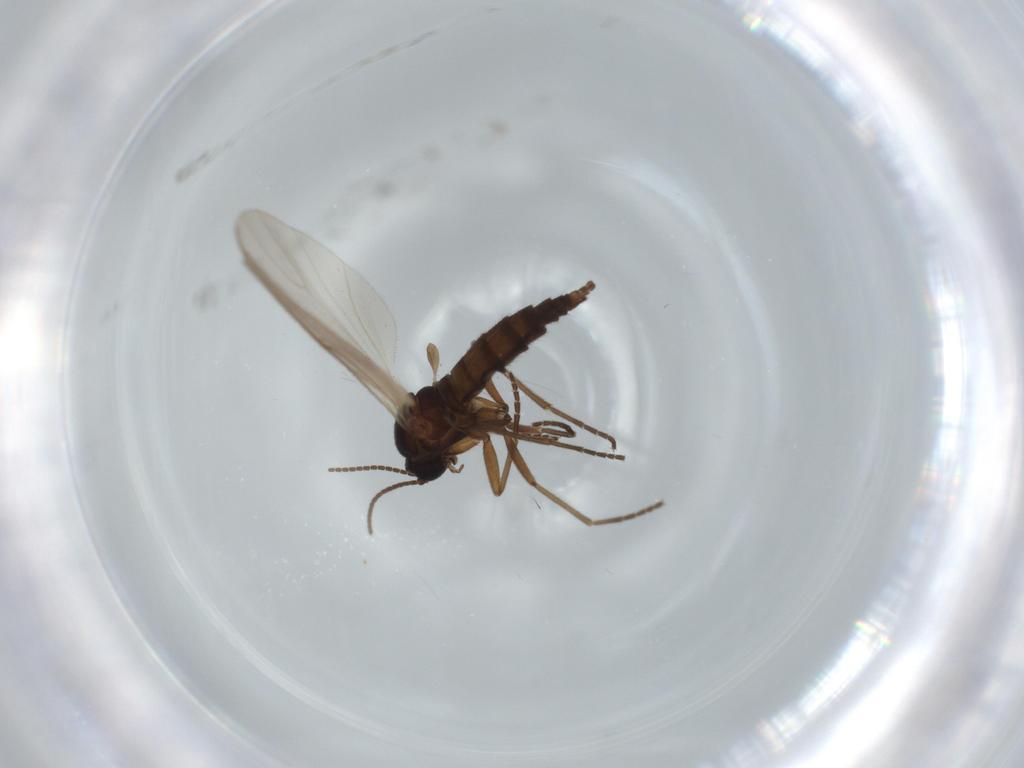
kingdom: Animalia
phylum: Arthropoda
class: Insecta
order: Diptera
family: Sciaridae
